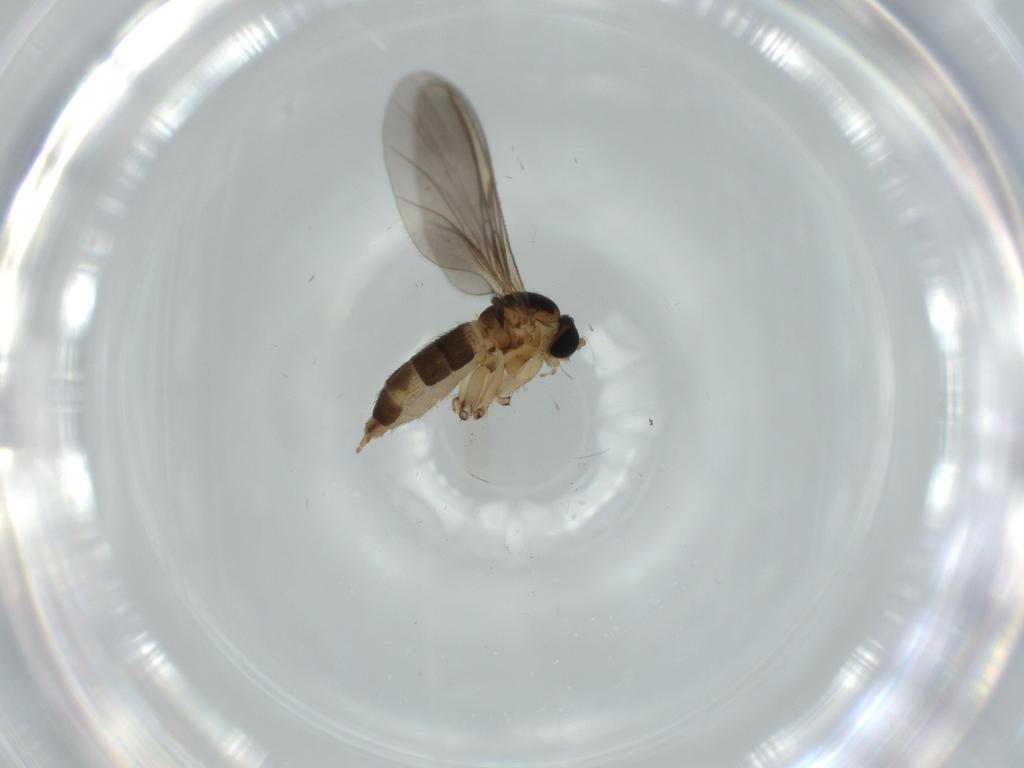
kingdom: Animalia
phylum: Arthropoda
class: Insecta
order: Diptera
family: Sciaridae
